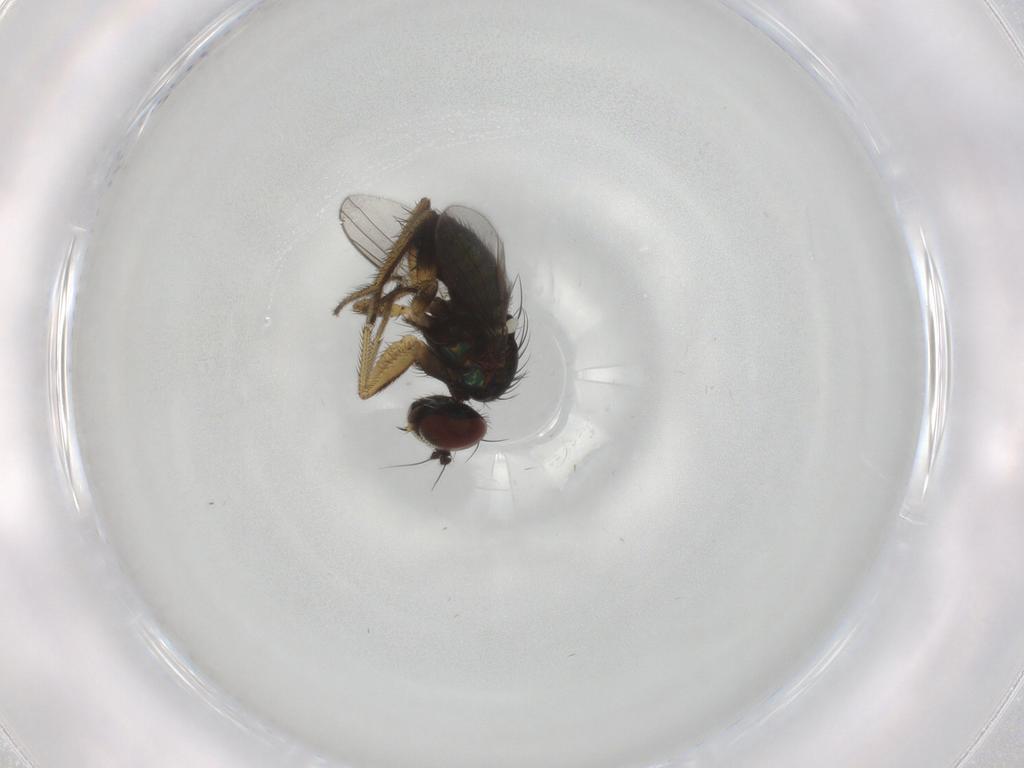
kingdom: Animalia
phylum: Arthropoda
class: Insecta
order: Diptera
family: Dolichopodidae
